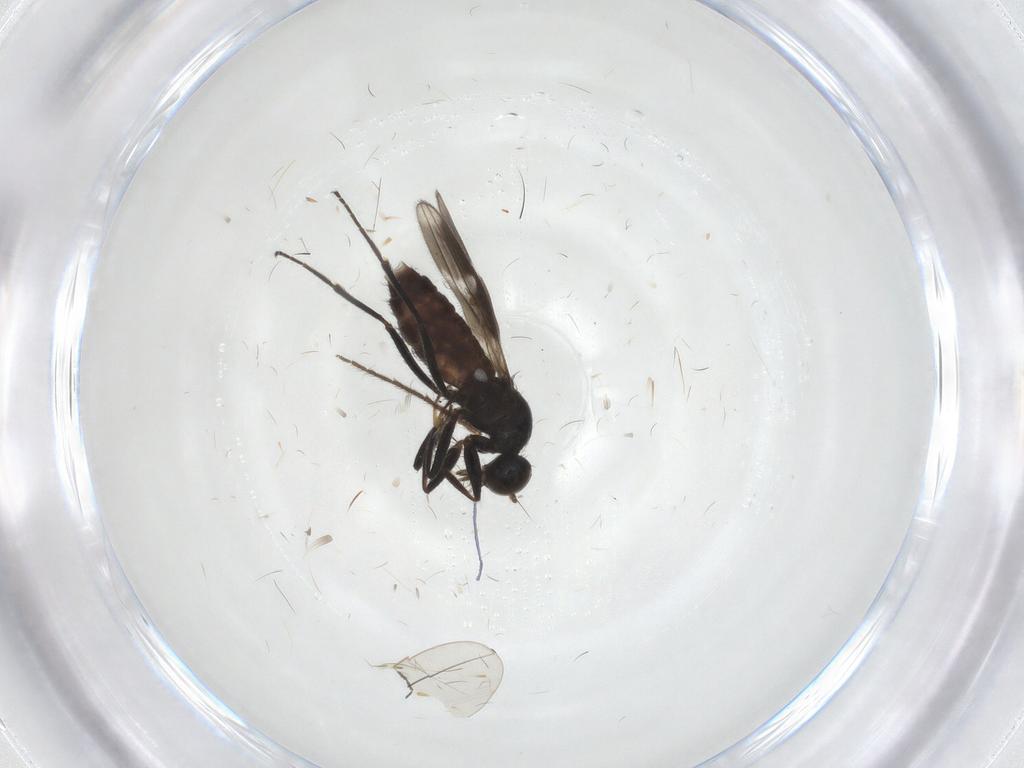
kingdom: Animalia
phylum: Arthropoda
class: Insecta
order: Diptera
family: Hybotidae
